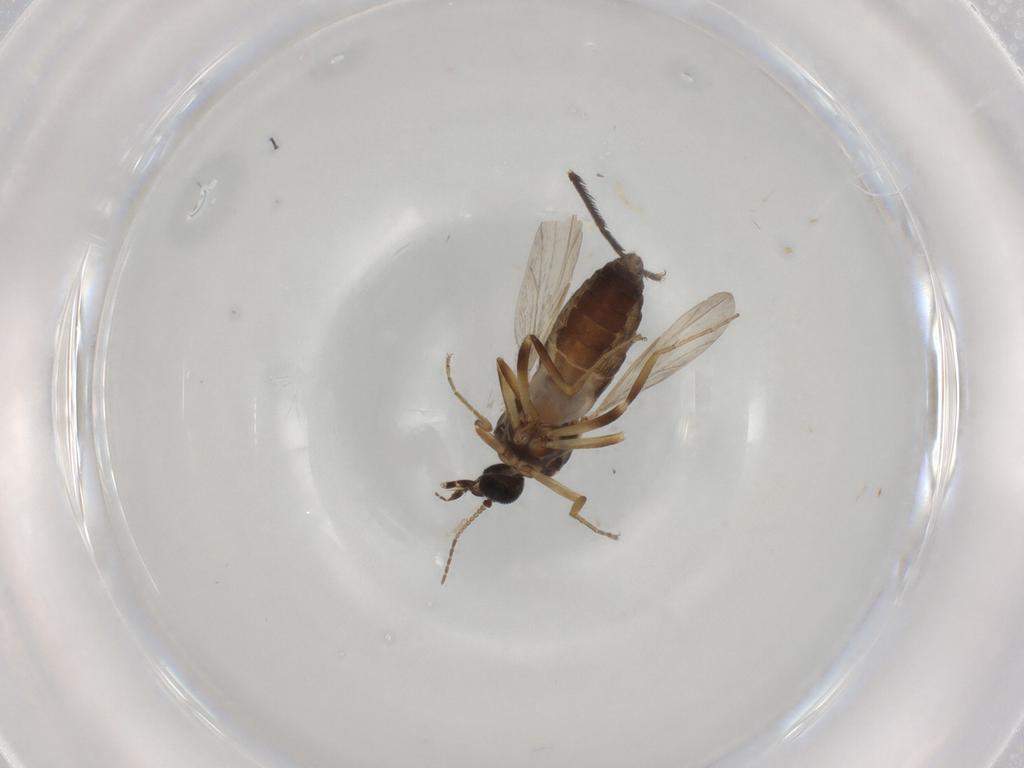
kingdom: Animalia
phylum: Arthropoda
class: Insecta
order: Diptera
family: Ceratopogonidae
